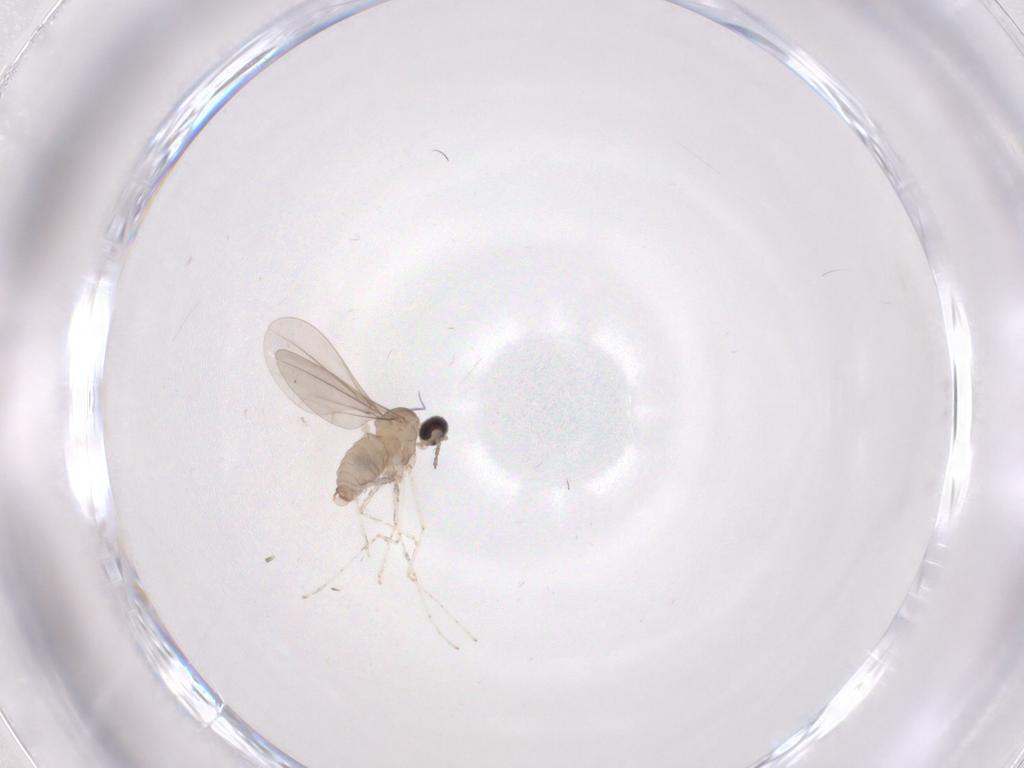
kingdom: Animalia
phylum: Arthropoda
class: Insecta
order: Diptera
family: Cecidomyiidae
